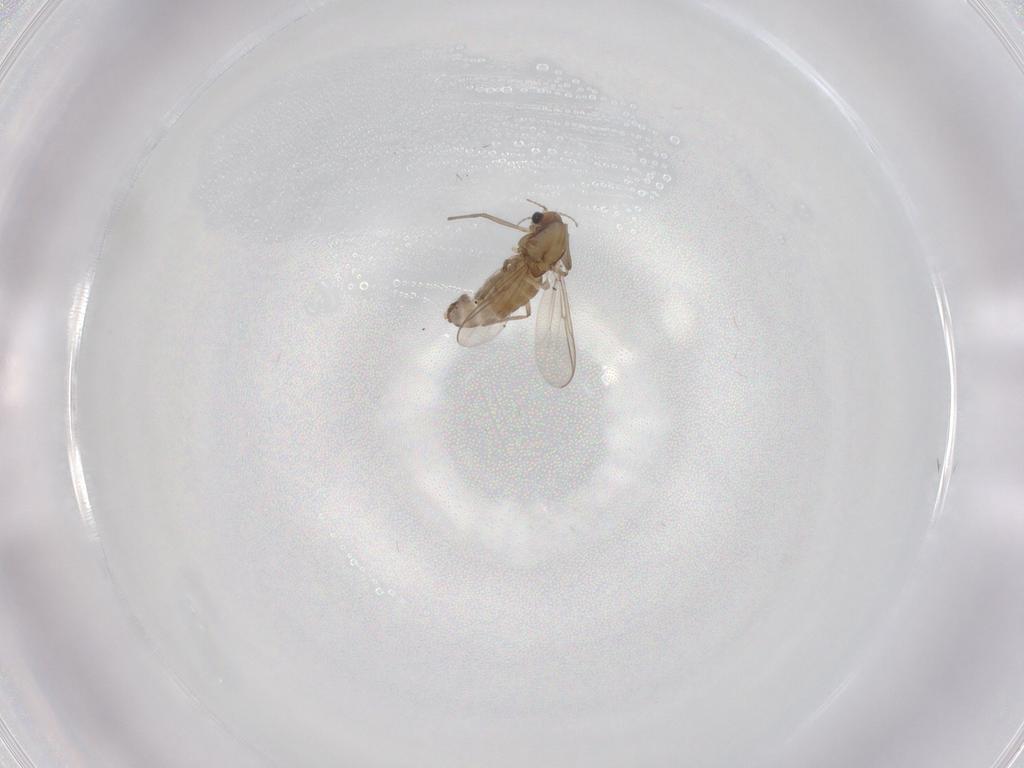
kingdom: Animalia
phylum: Arthropoda
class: Insecta
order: Diptera
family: Chironomidae
